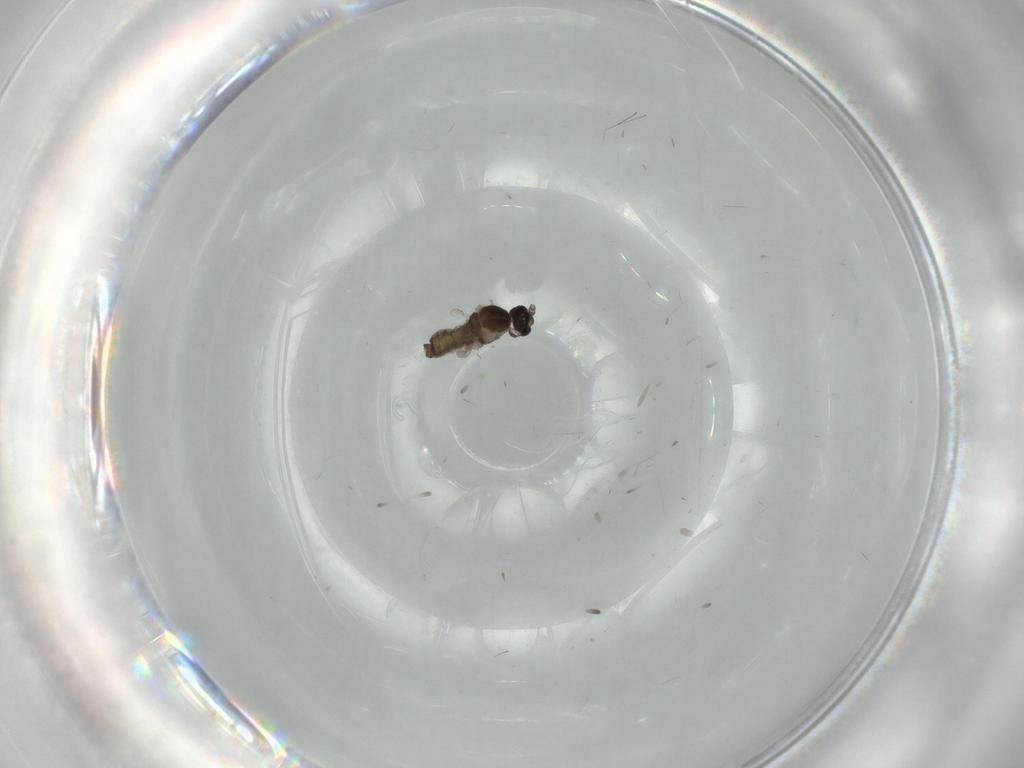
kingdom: Animalia
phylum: Arthropoda
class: Insecta
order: Diptera
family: Cecidomyiidae
